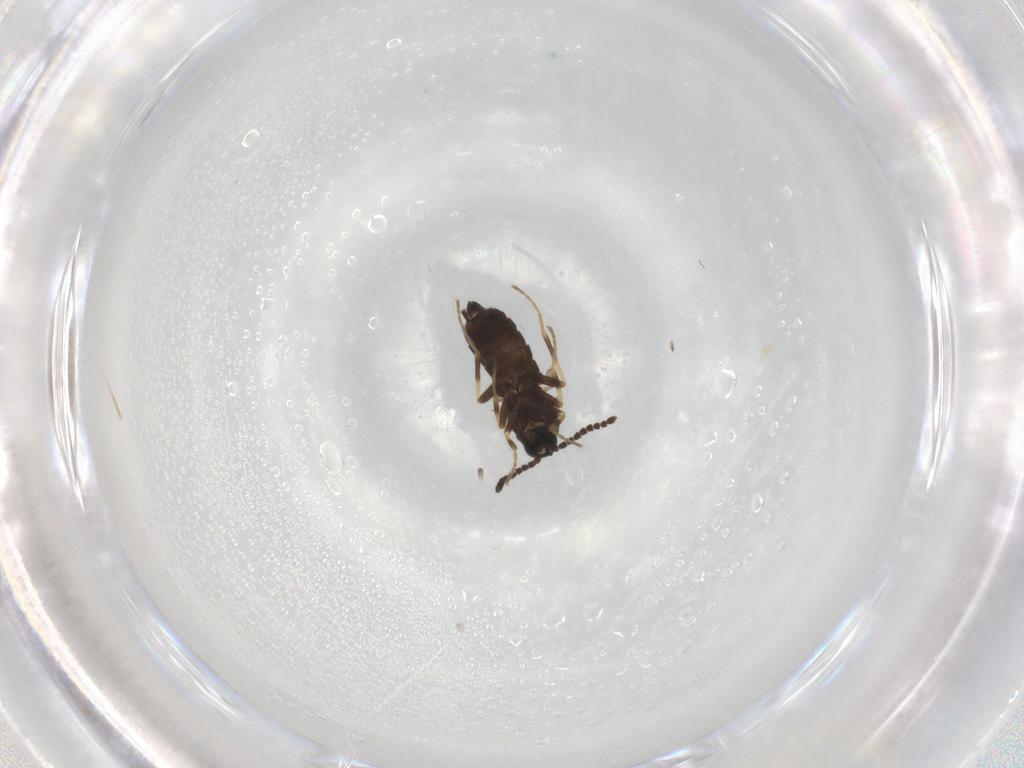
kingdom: Animalia
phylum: Arthropoda
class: Insecta
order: Diptera
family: Scatopsidae
